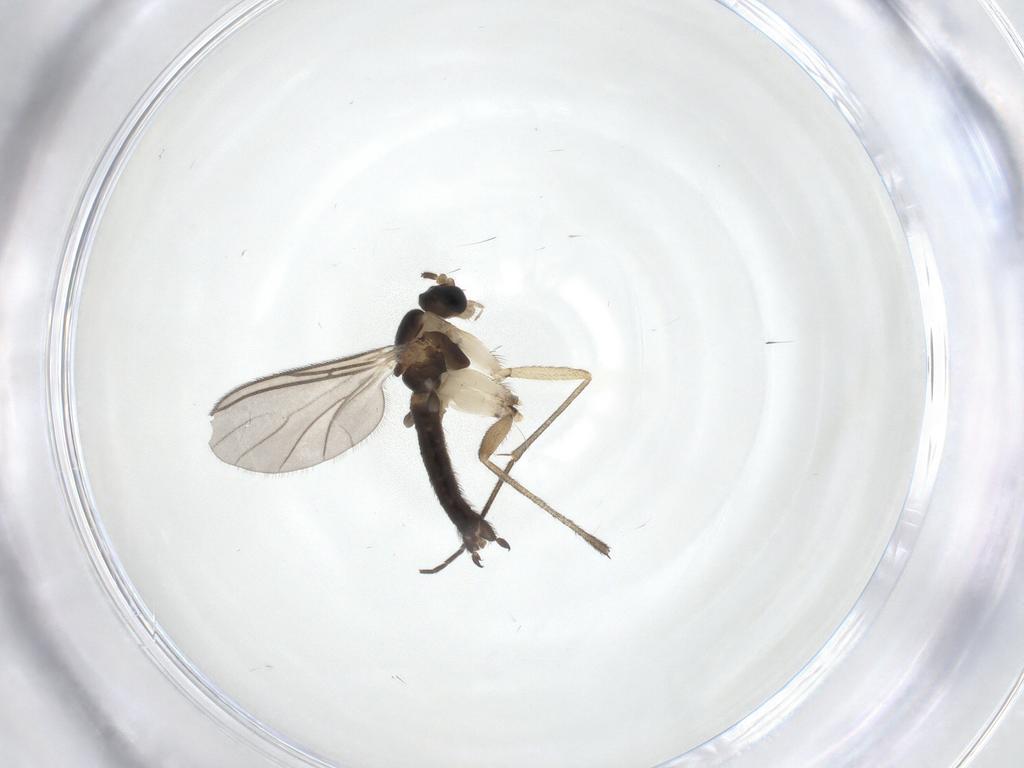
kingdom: Animalia
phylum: Arthropoda
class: Insecta
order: Diptera
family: Sciaridae
